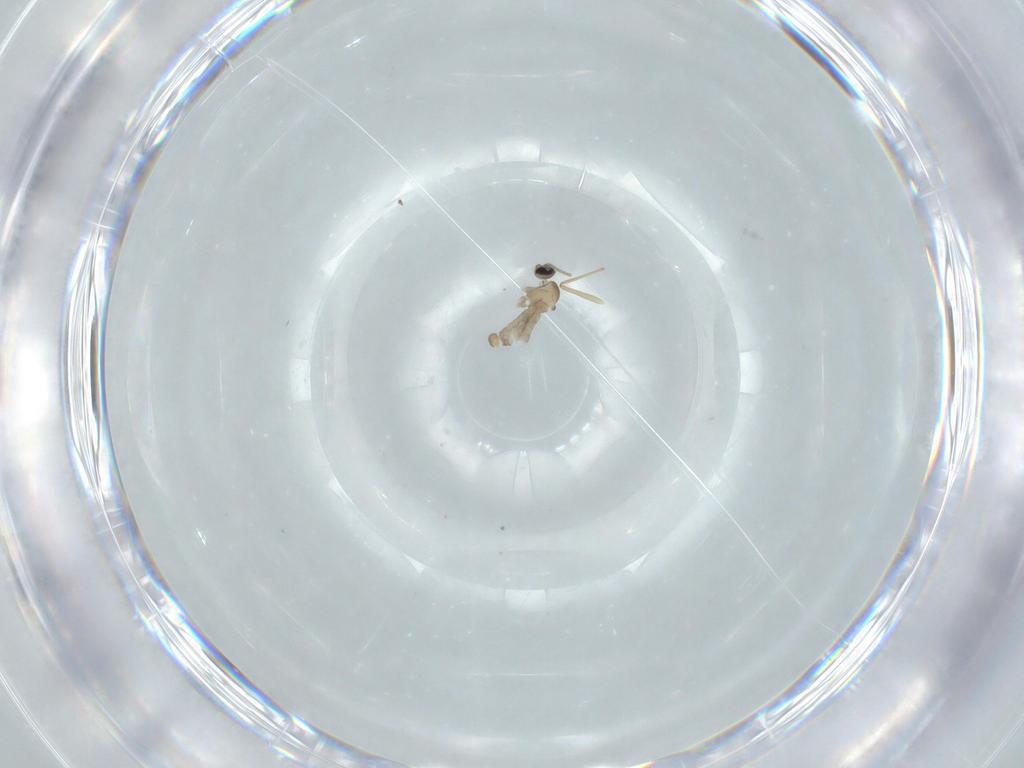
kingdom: Animalia
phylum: Arthropoda
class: Insecta
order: Diptera
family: Cecidomyiidae
